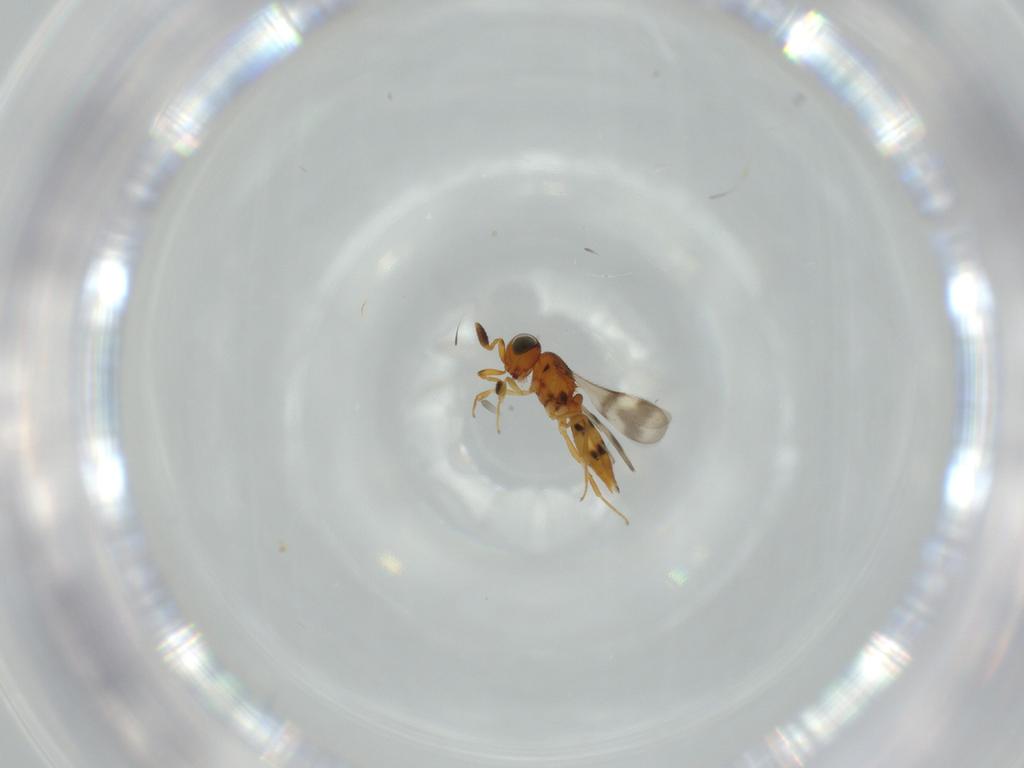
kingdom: Animalia
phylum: Arthropoda
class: Insecta
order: Hymenoptera
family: Scelionidae
